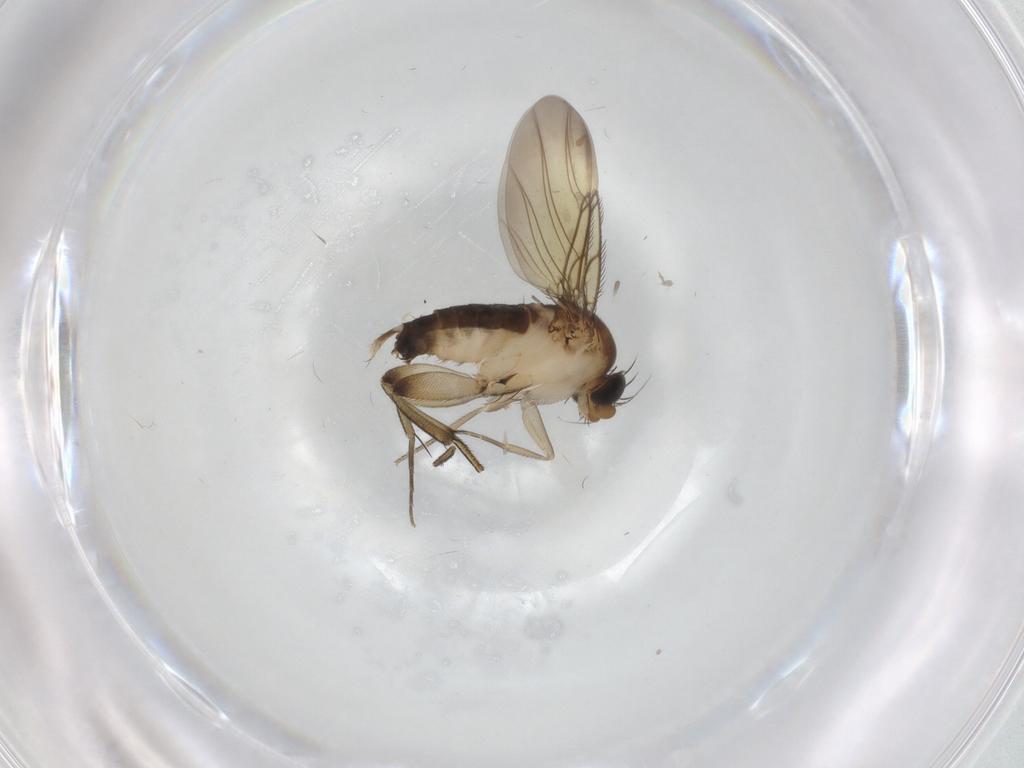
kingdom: Animalia
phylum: Arthropoda
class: Insecta
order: Diptera
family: Phoridae
